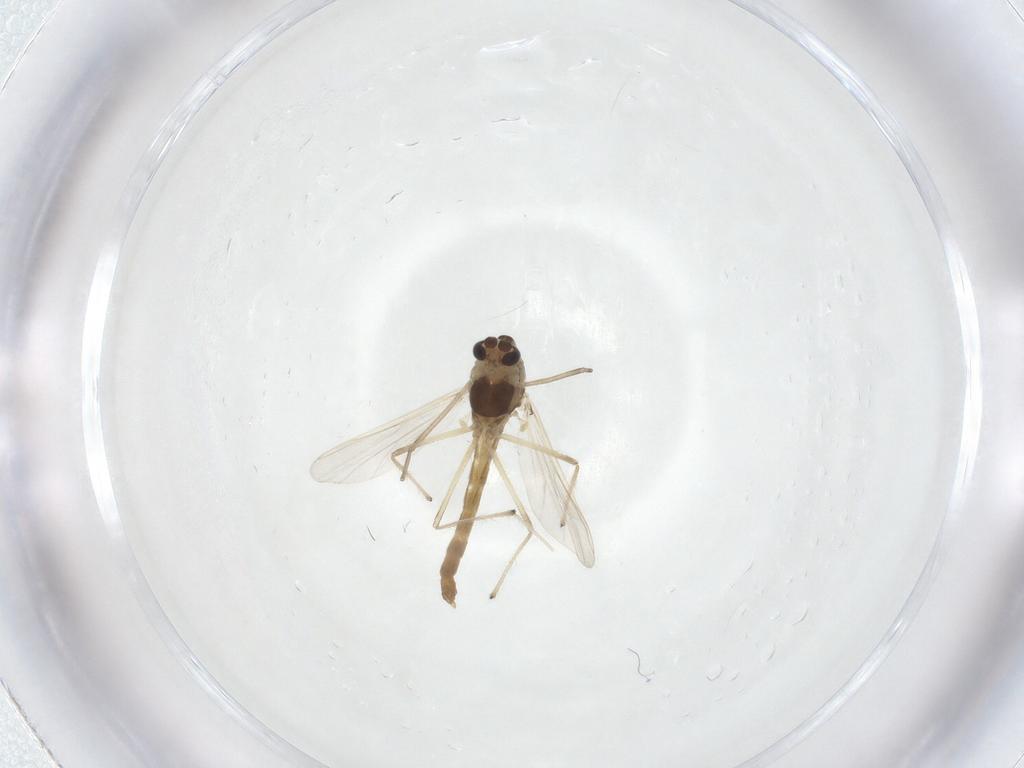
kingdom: Animalia
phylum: Arthropoda
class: Insecta
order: Diptera
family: Chironomidae
